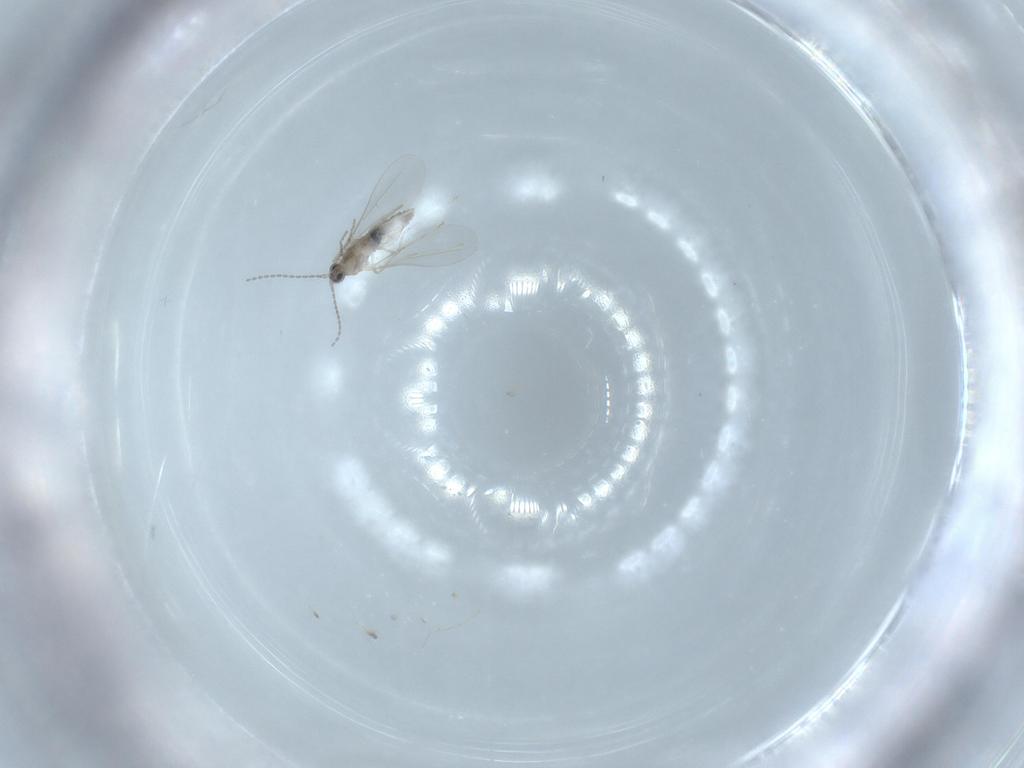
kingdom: Animalia
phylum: Arthropoda
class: Insecta
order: Diptera
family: Cecidomyiidae
